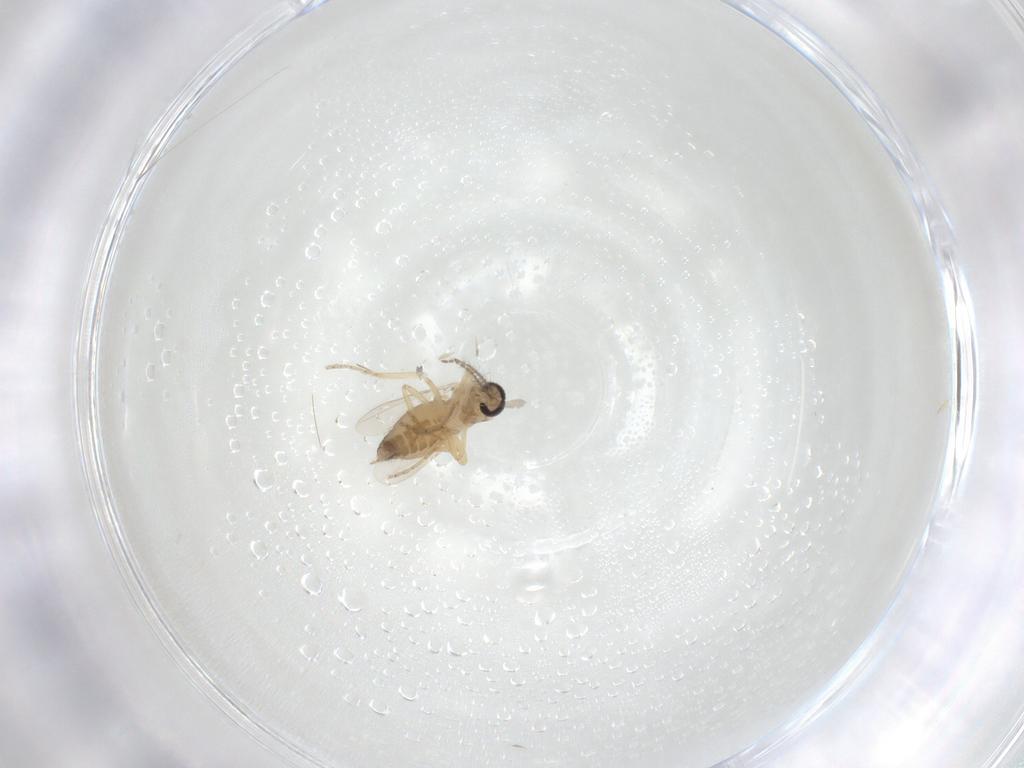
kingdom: Animalia
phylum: Arthropoda
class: Insecta
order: Diptera
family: Ceratopogonidae
